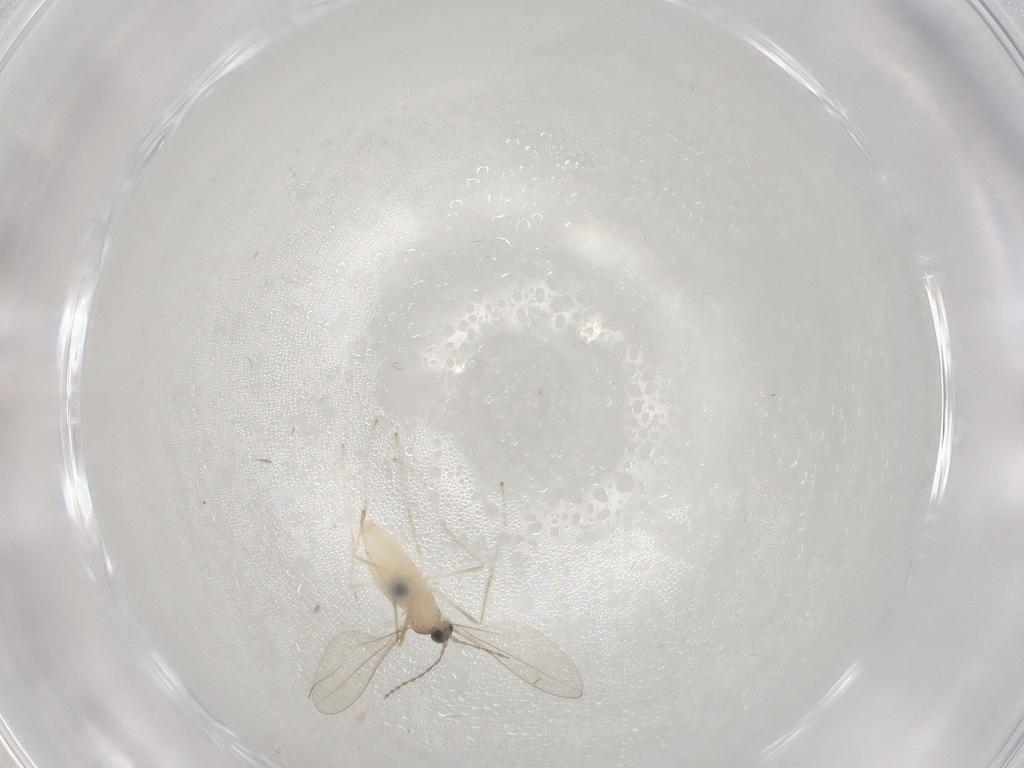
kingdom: Animalia
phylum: Arthropoda
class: Insecta
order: Diptera
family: Cecidomyiidae
